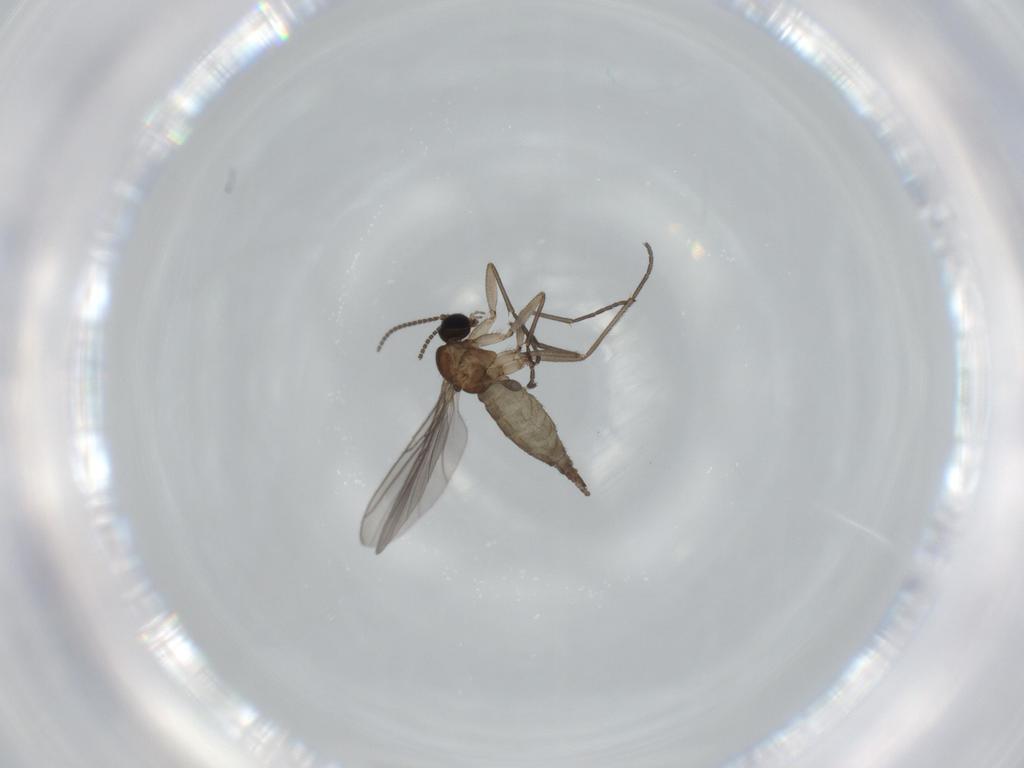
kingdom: Animalia
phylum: Arthropoda
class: Insecta
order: Diptera
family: Sciaridae
